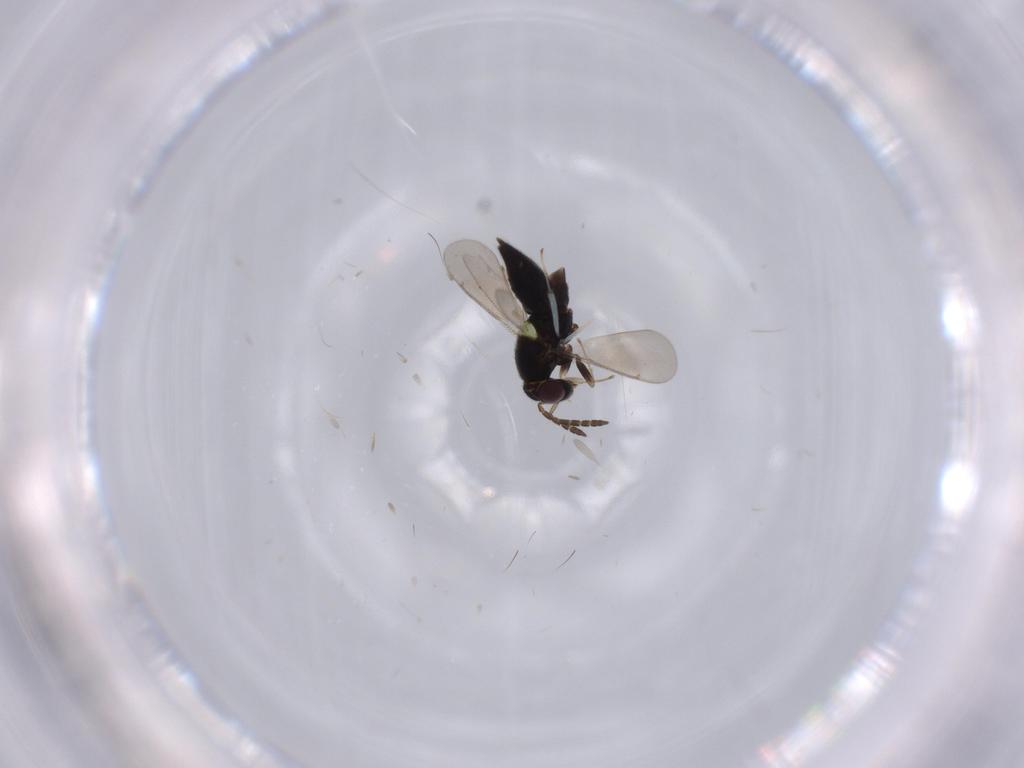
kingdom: Animalia
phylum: Arthropoda
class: Insecta
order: Hymenoptera
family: Aphelinidae
